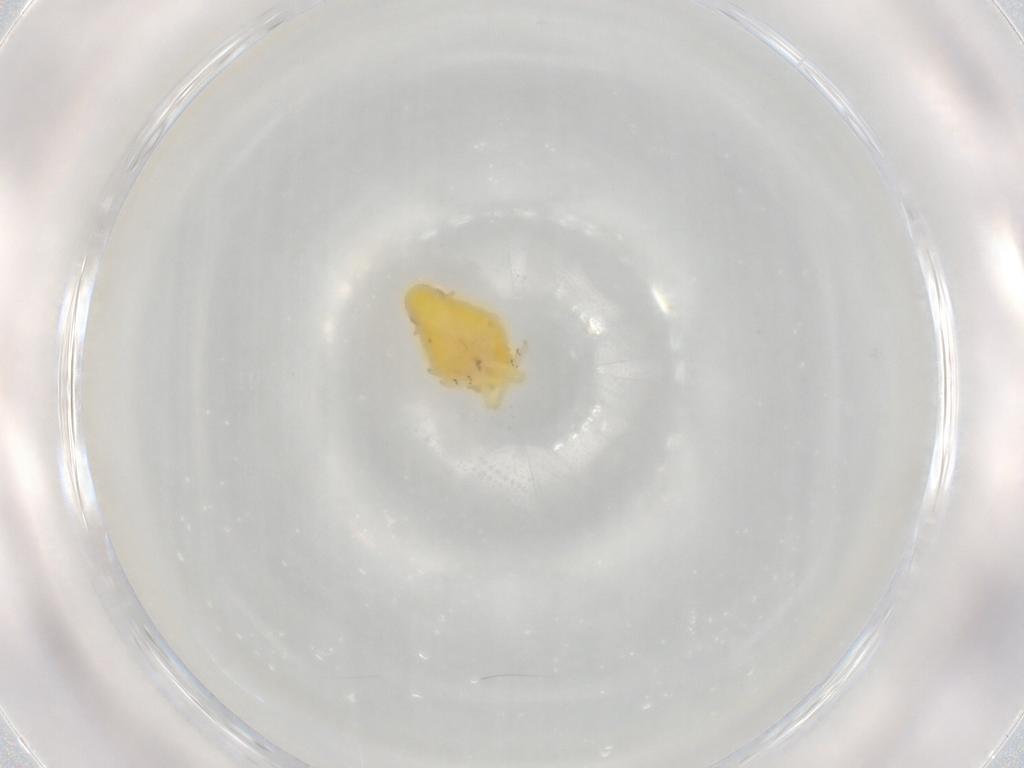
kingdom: Animalia
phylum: Arthropoda
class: Insecta
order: Hemiptera
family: Cicadellidae
